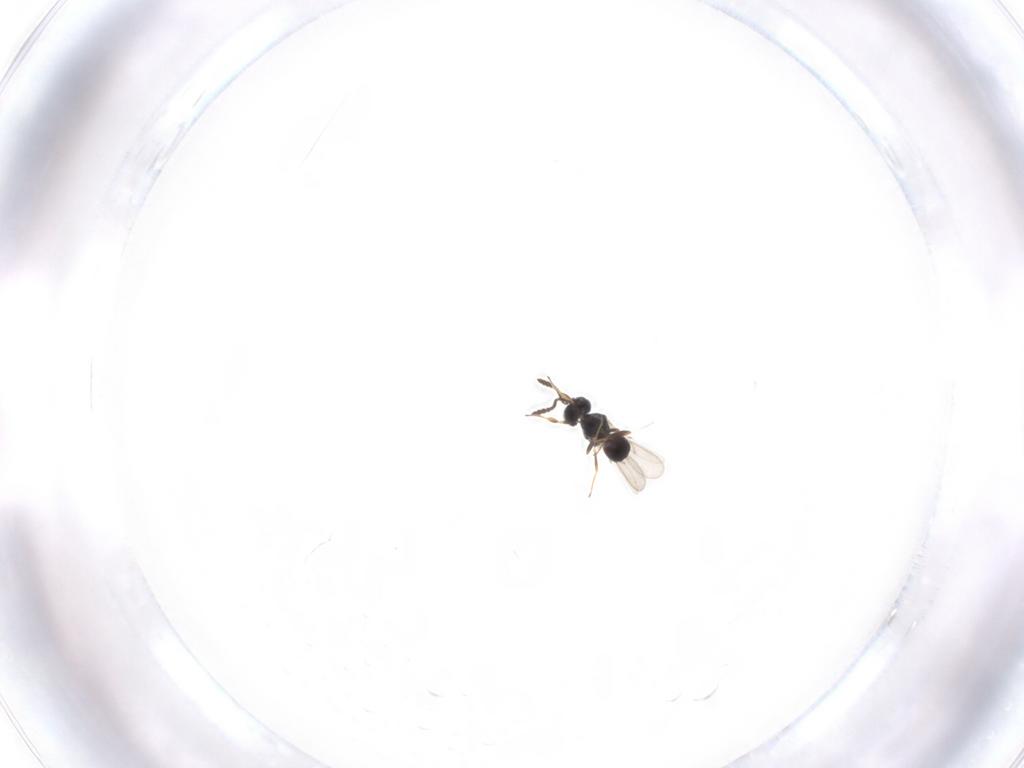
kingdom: Animalia
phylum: Arthropoda
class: Insecta
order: Hymenoptera
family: Scelionidae
